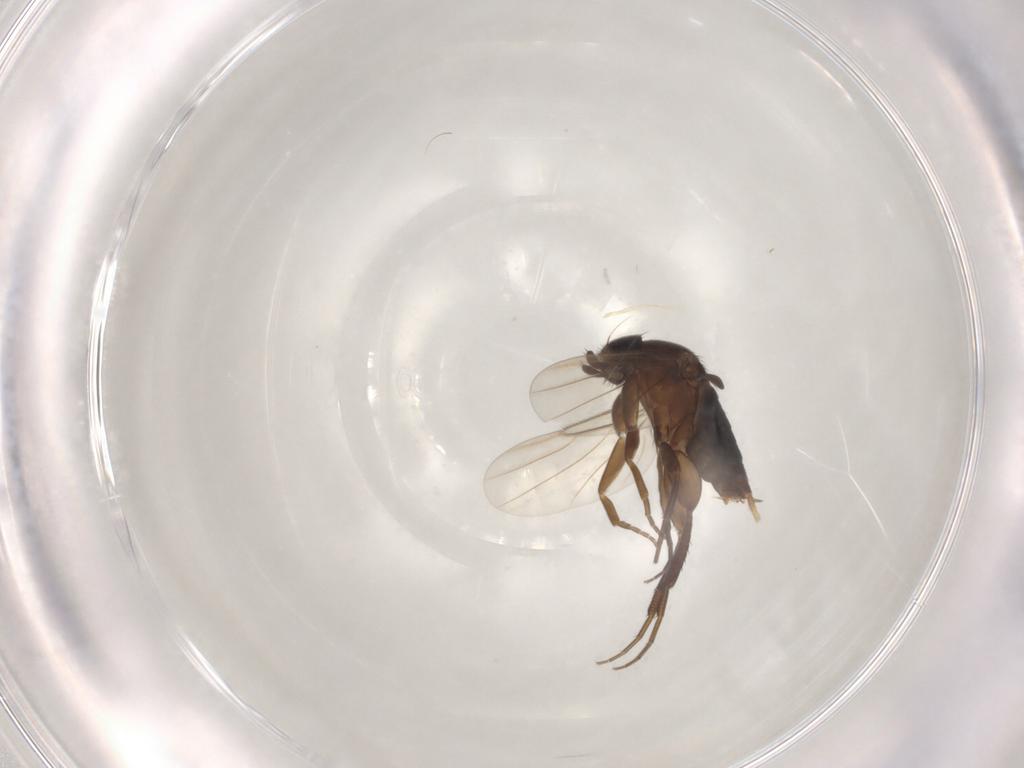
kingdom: Animalia
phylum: Arthropoda
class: Insecta
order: Diptera
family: Phoridae
